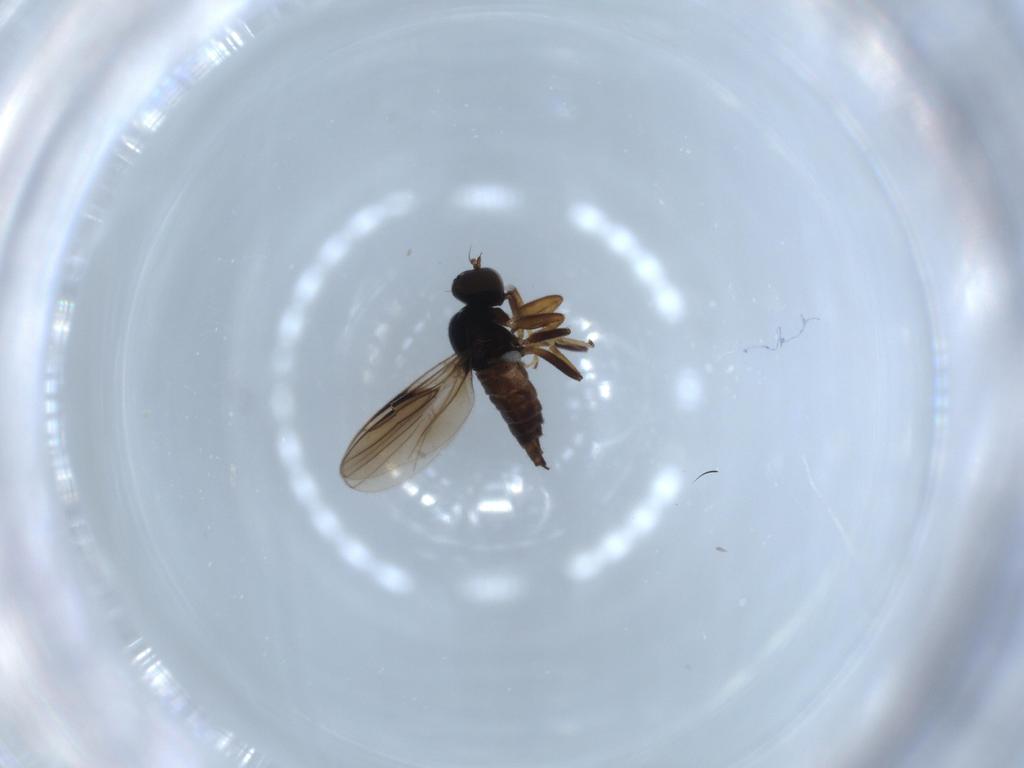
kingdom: Animalia
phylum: Arthropoda
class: Insecta
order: Diptera
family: Hybotidae
